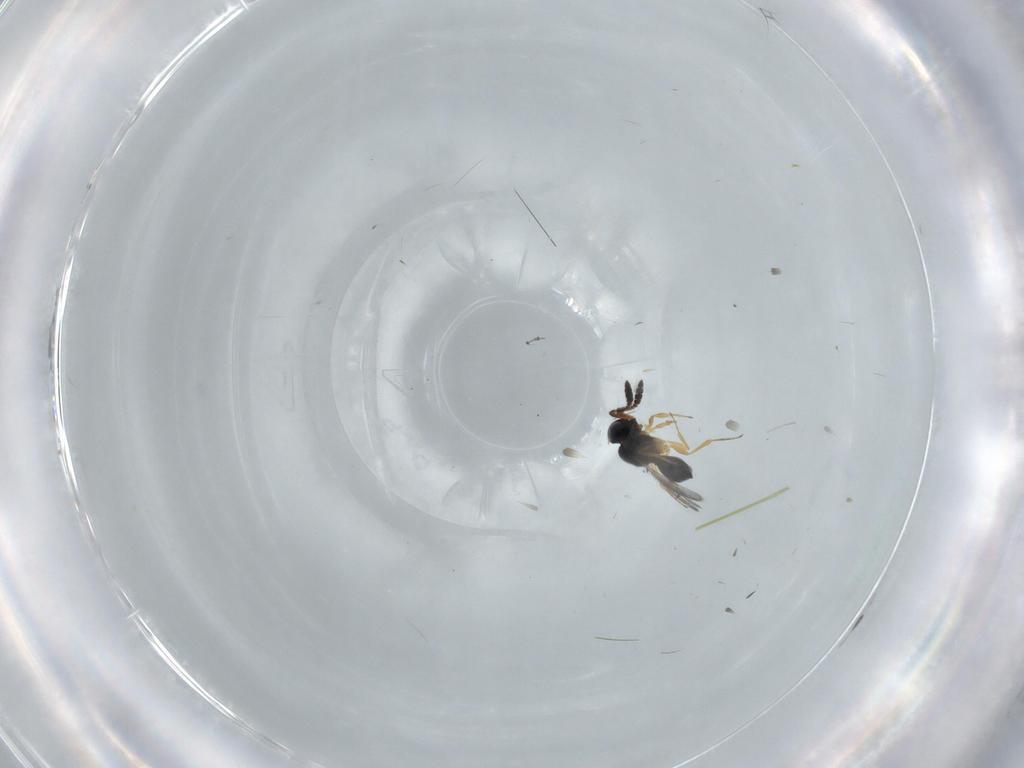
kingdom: Animalia
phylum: Arthropoda
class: Insecta
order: Hymenoptera
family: Scelionidae
